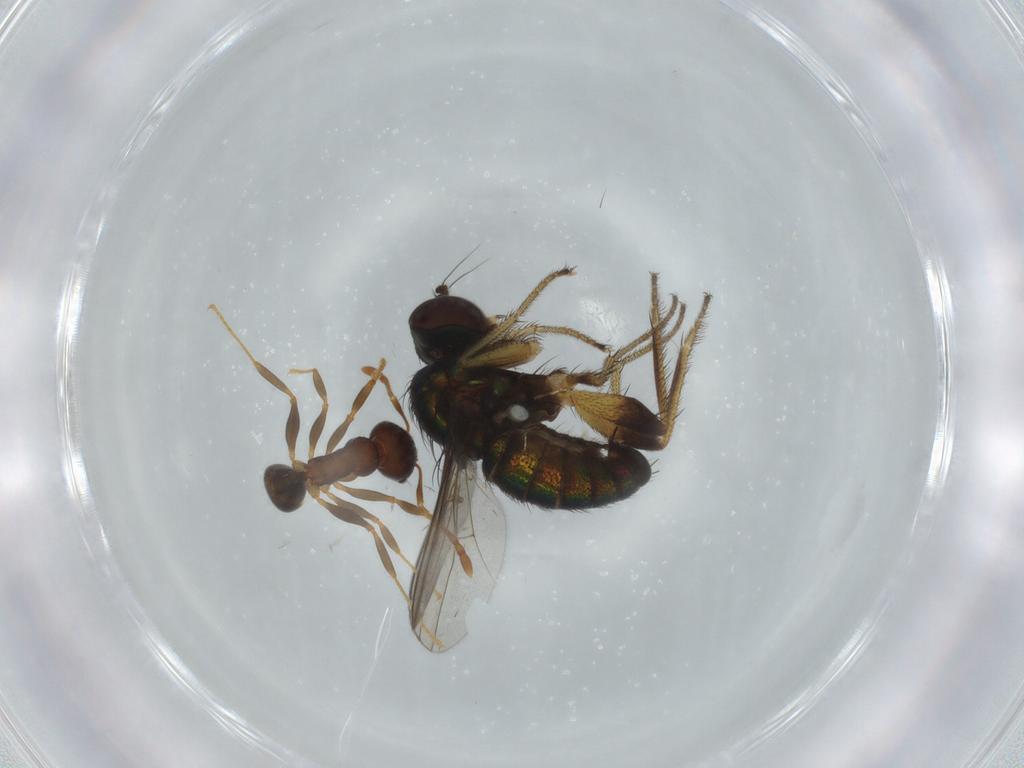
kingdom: Animalia
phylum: Arthropoda
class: Insecta
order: Diptera
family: Dolichopodidae
